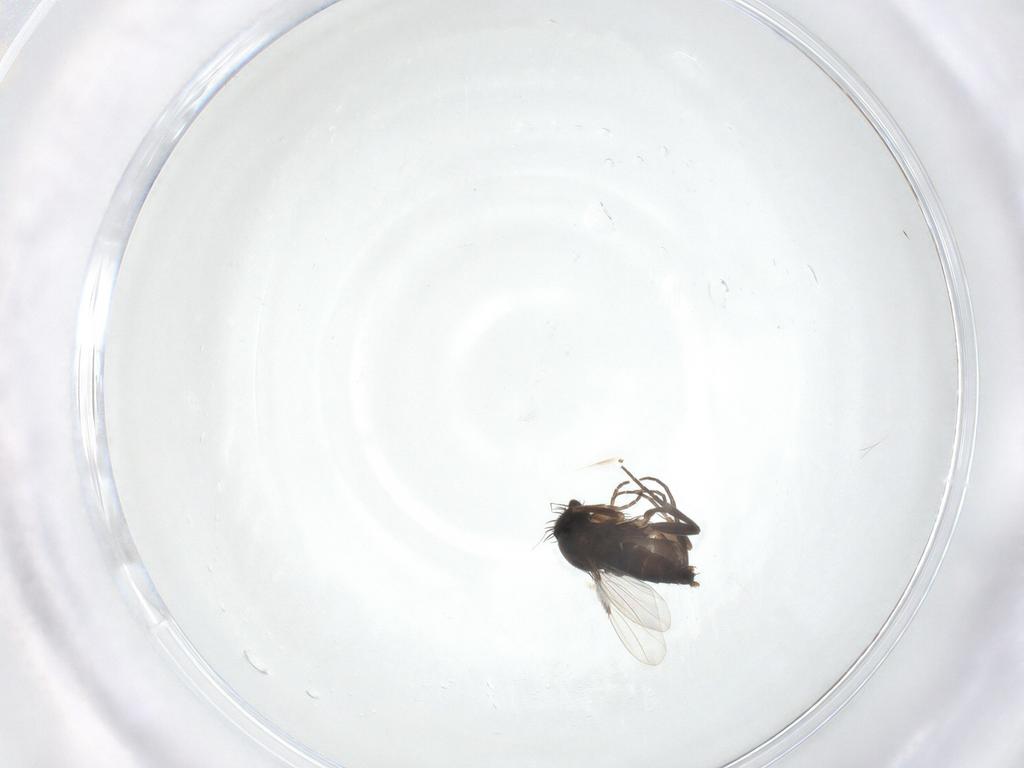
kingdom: Animalia
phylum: Arthropoda
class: Insecta
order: Diptera
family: Phoridae
